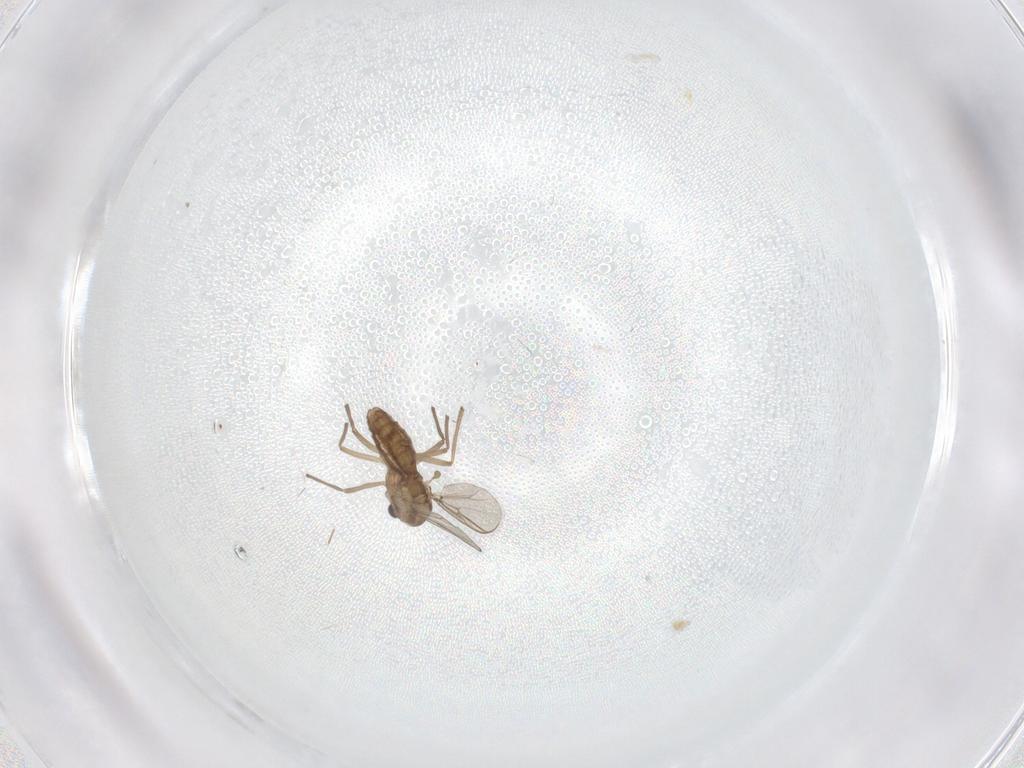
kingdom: Animalia
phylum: Arthropoda
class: Insecta
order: Diptera
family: Chironomidae
